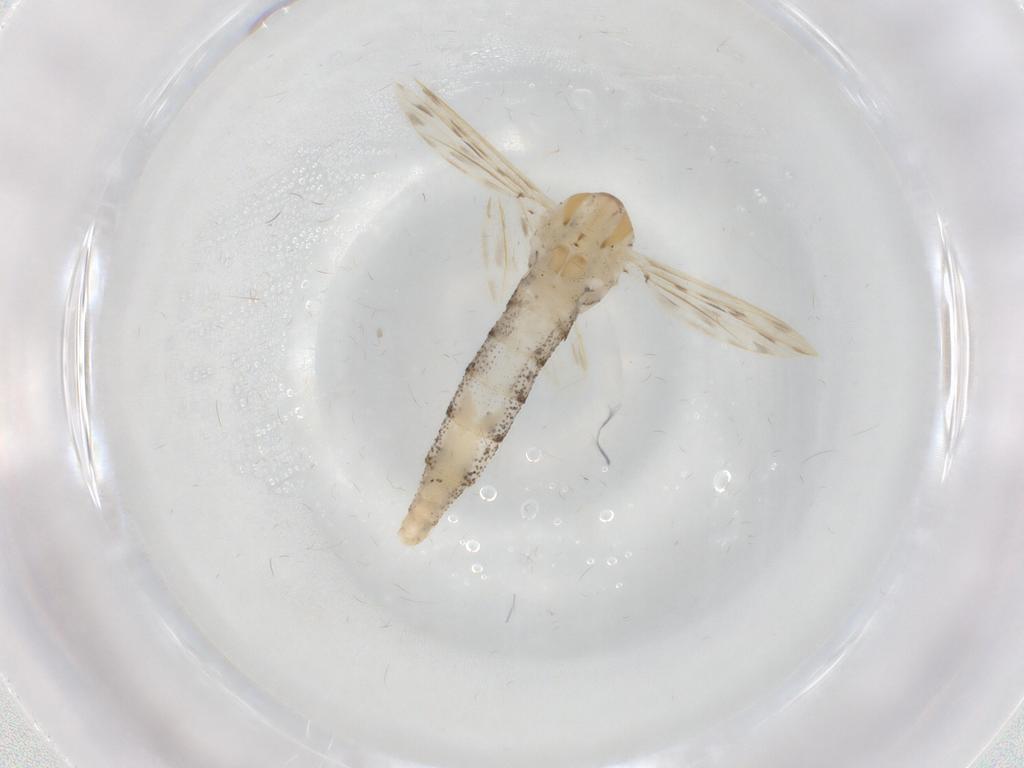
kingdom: Animalia
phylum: Arthropoda
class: Insecta
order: Diptera
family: Chaoboridae
